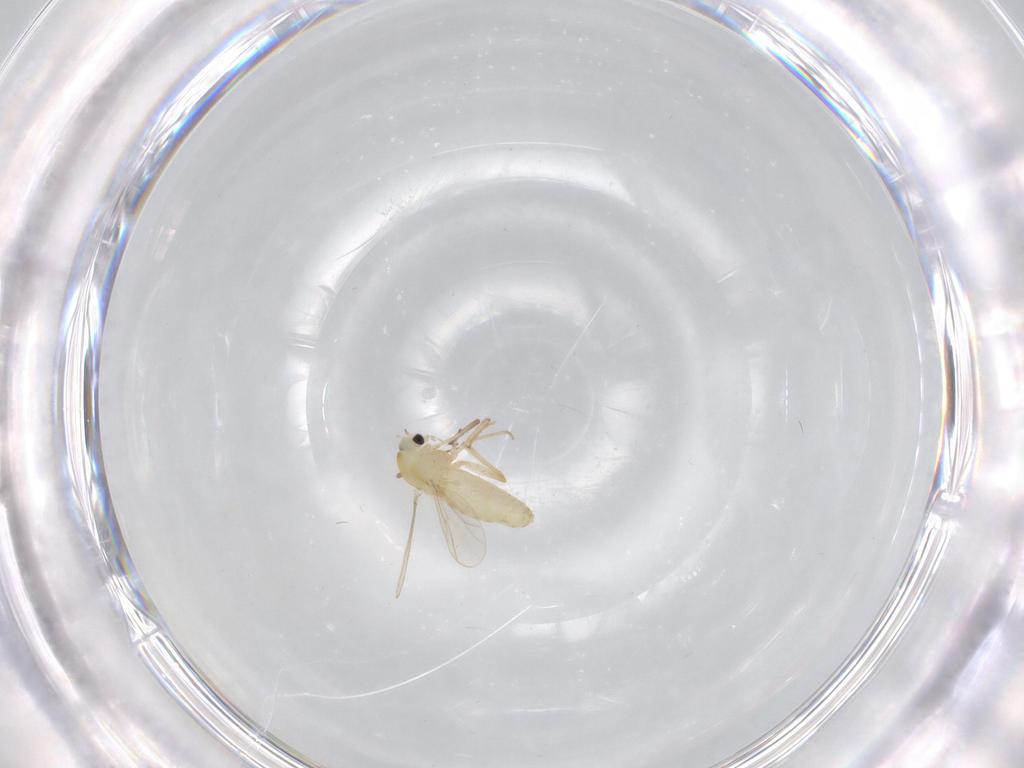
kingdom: Animalia
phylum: Arthropoda
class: Insecta
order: Diptera
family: Chironomidae
